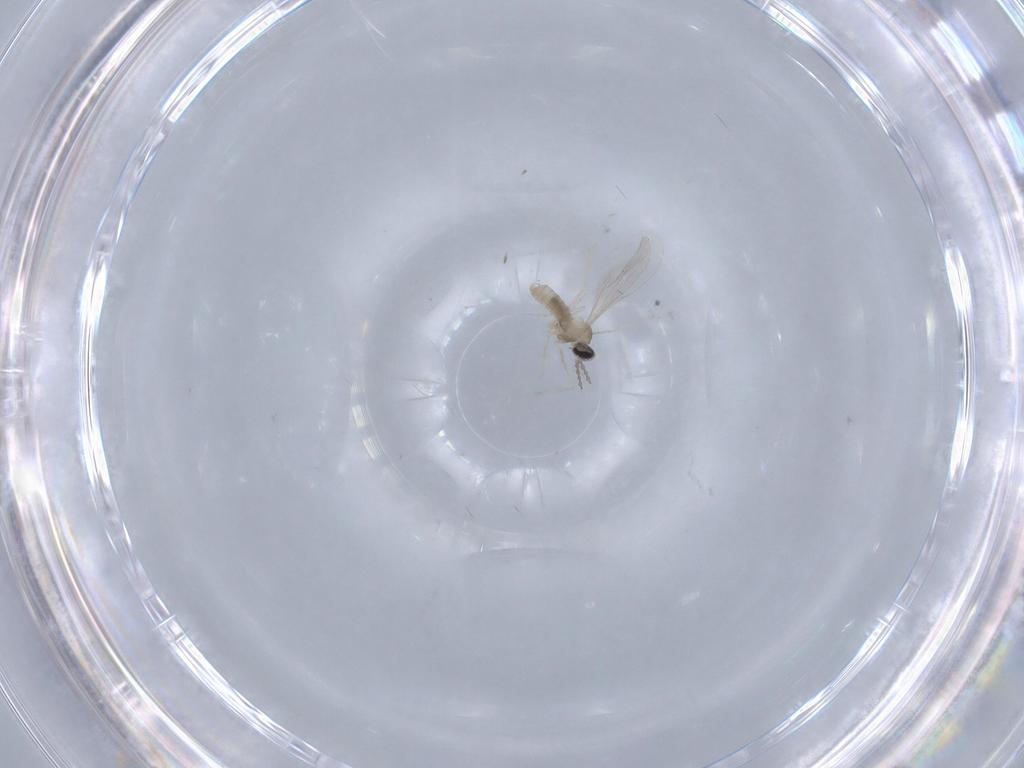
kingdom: Animalia
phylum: Arthropoda
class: Insecta
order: Diptera
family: Cecidomyiidae
